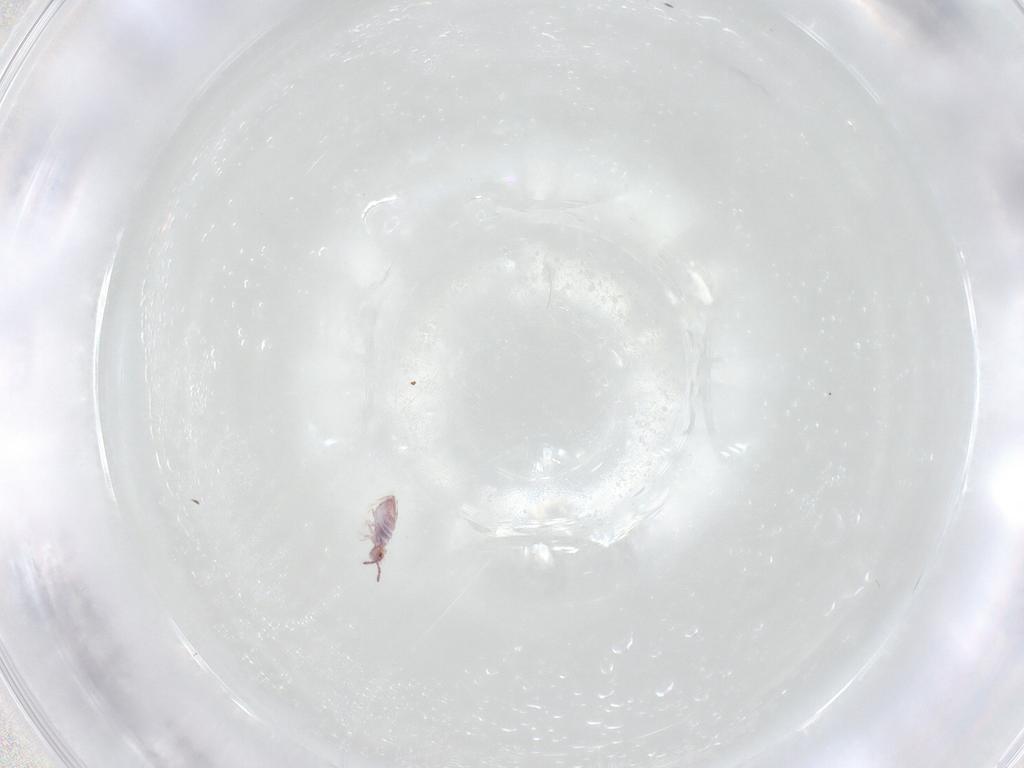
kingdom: Animalia
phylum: Arthropoda
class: Collembola
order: Entomobryomorpha
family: Entomobryidae
